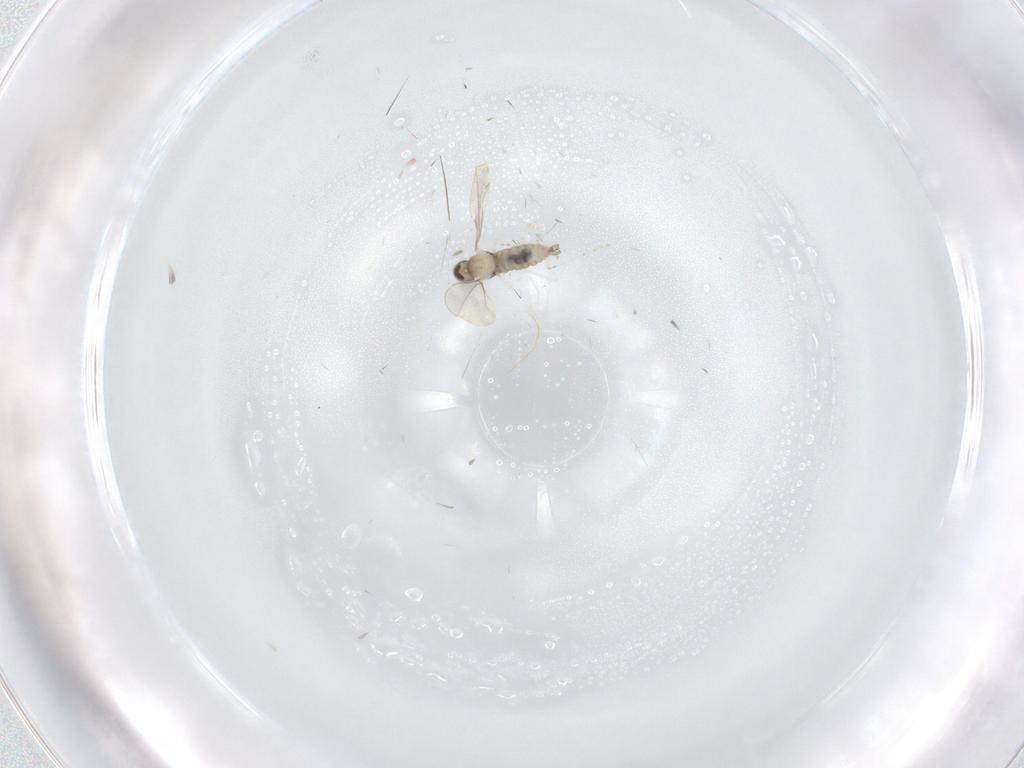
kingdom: Animalia
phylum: Arthropoda
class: Insecta
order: Diptera
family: Cecidomyiidae
